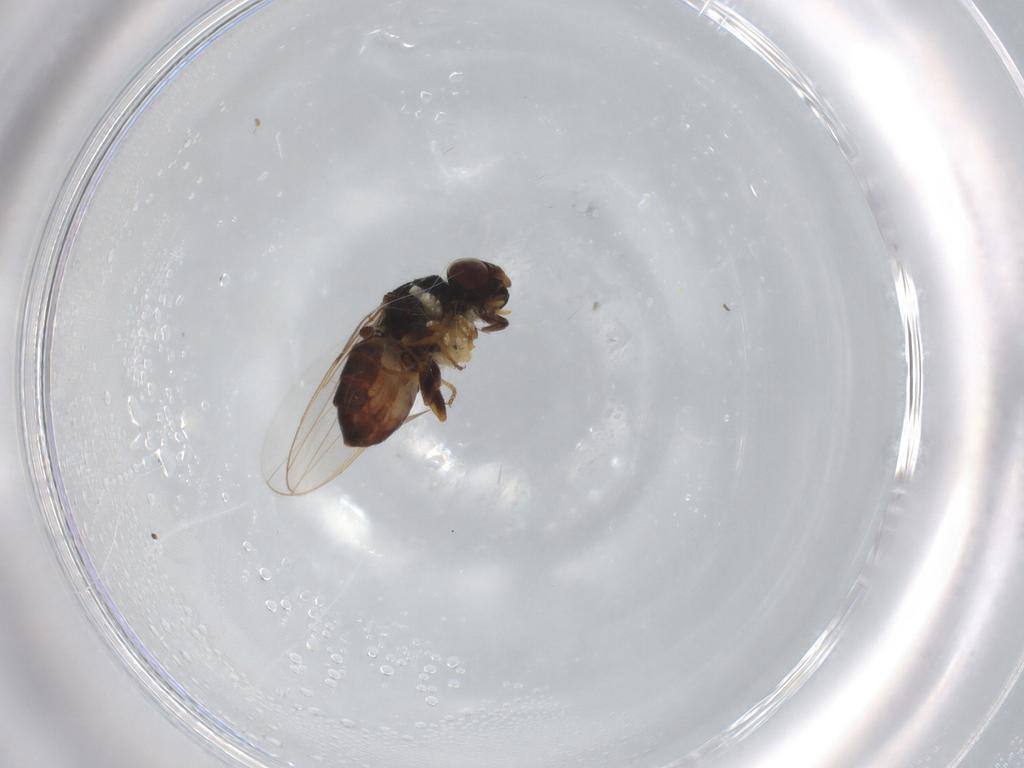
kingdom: Animalia
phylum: Arthropoda
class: Insecta
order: Diptera
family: Chloropidae
